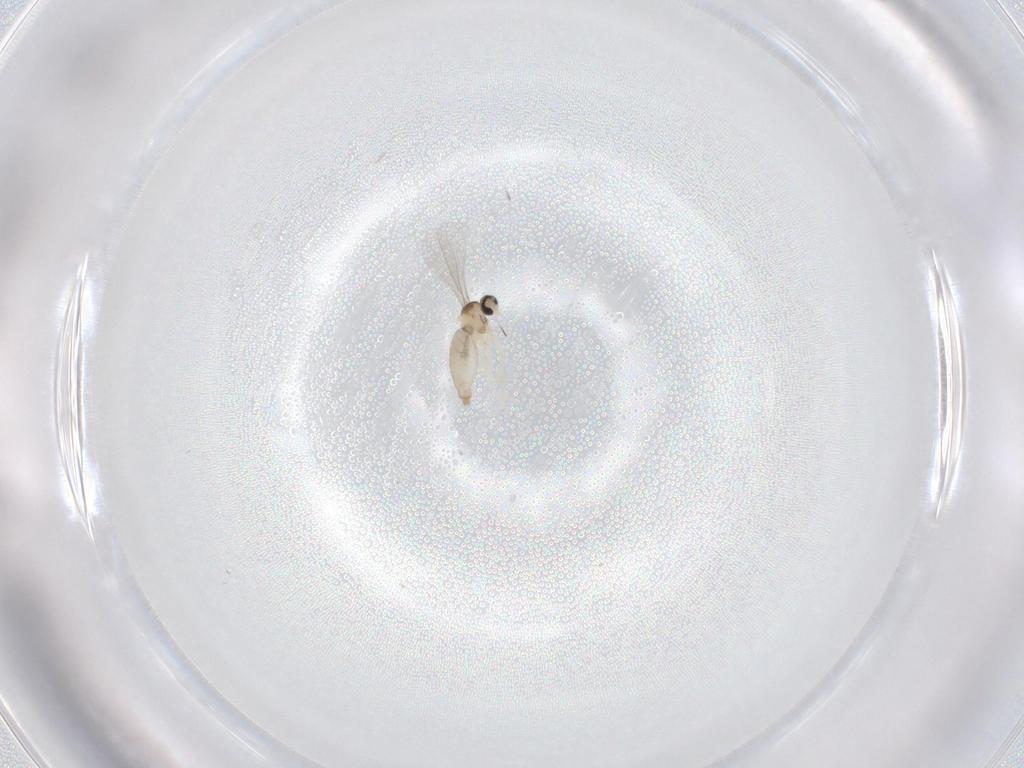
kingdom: Animalia
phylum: Arthropoda
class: Insecta
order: Diptera
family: Cecidomyiidae
